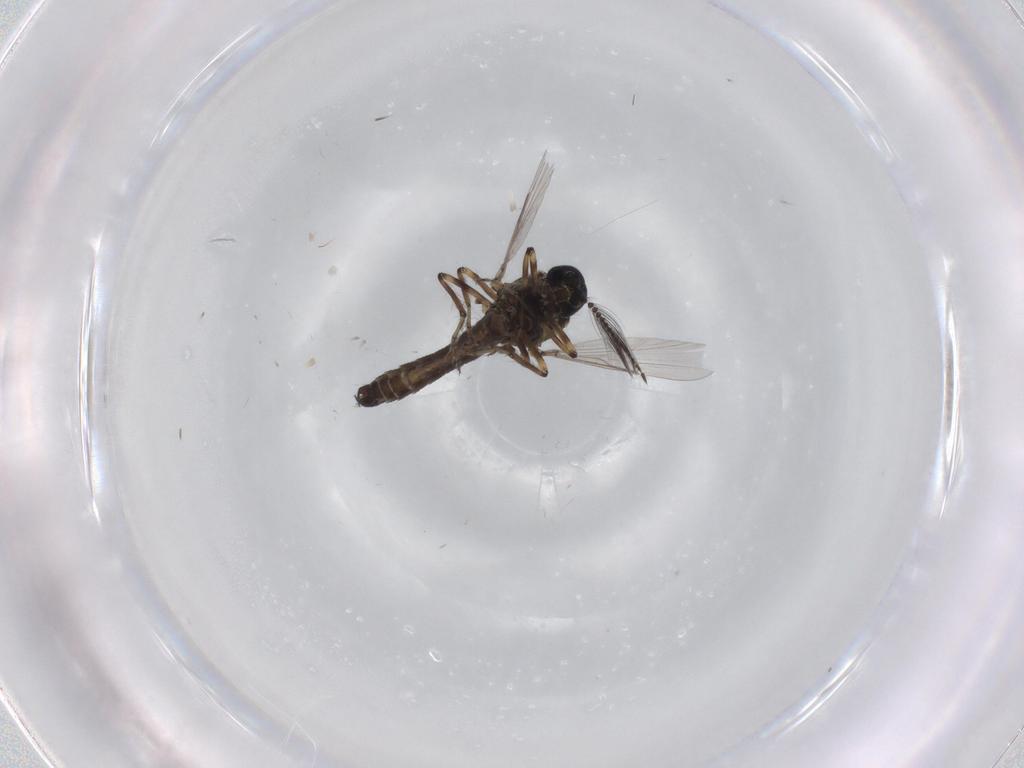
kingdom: Animalia
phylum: Arthropoda
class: Insecta
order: Diptera
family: Ceratopogonidae
